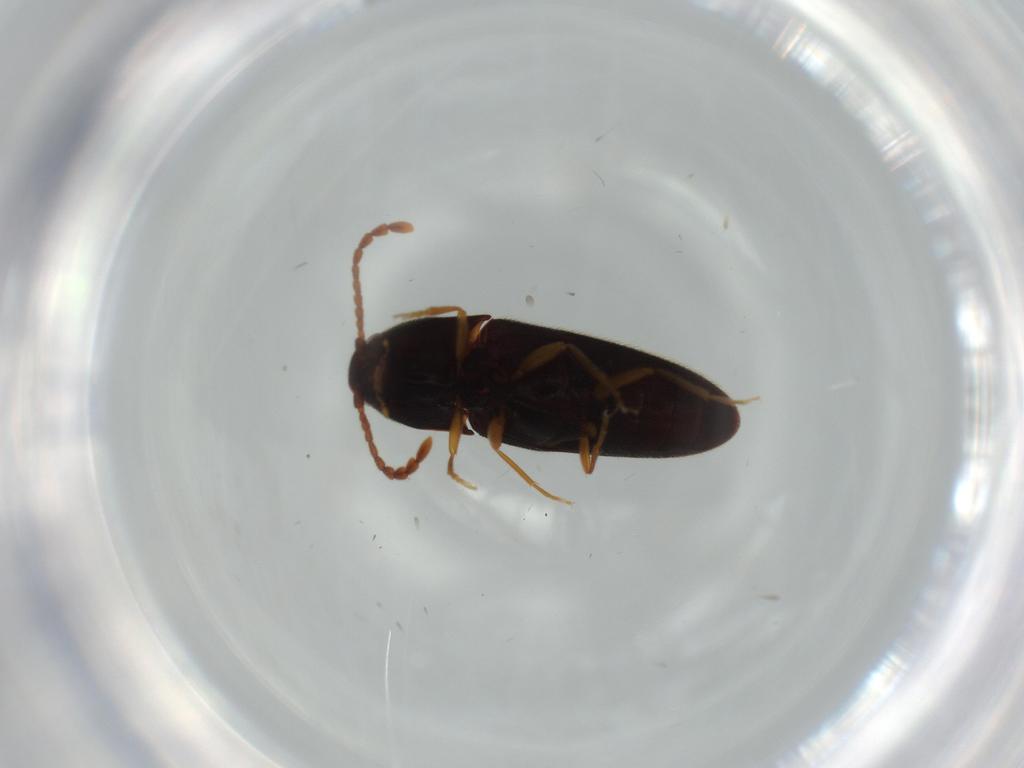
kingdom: Animalia
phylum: Arthropoda
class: Insecta
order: Coleoptera
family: Elateridae
